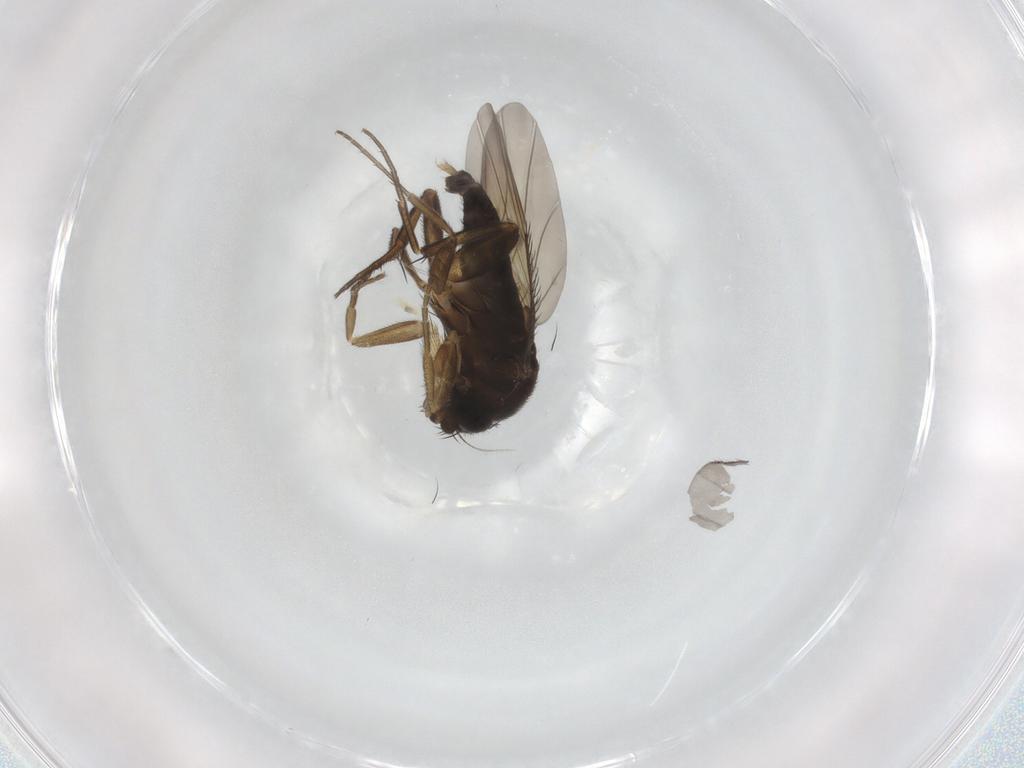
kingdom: Animalia
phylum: Arthropoda
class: Insecta
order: Diptera
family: Phoridae
